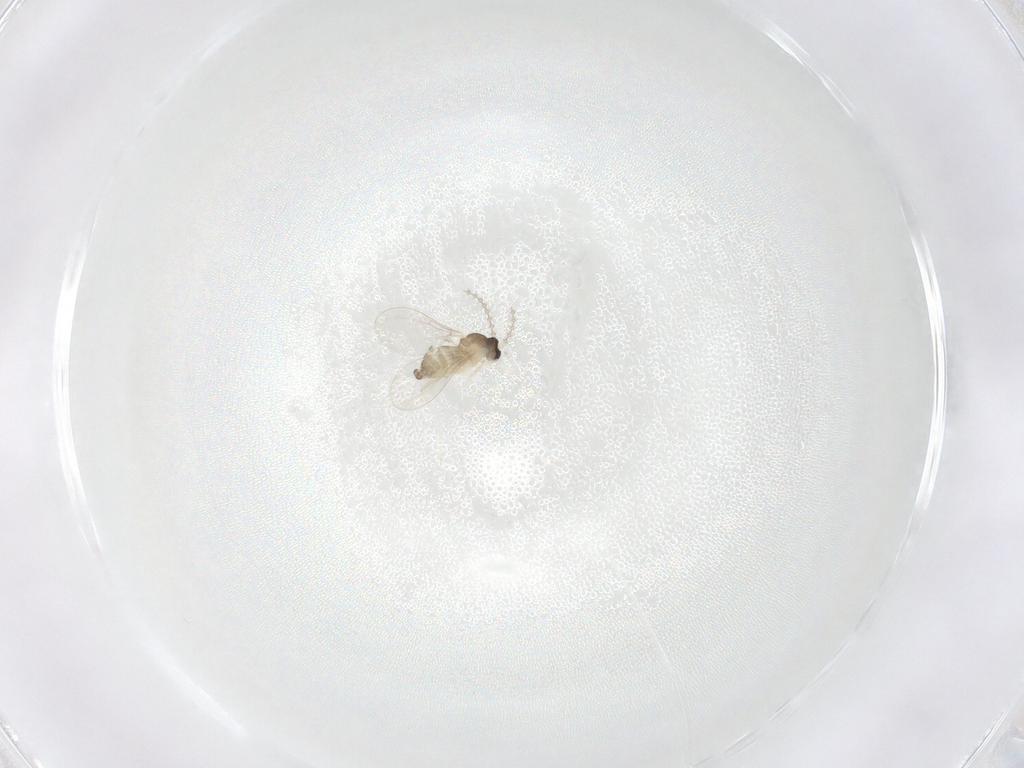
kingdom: Animalia
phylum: Arthropoda
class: Insecta
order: Diptera
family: Cecidomyiidae
